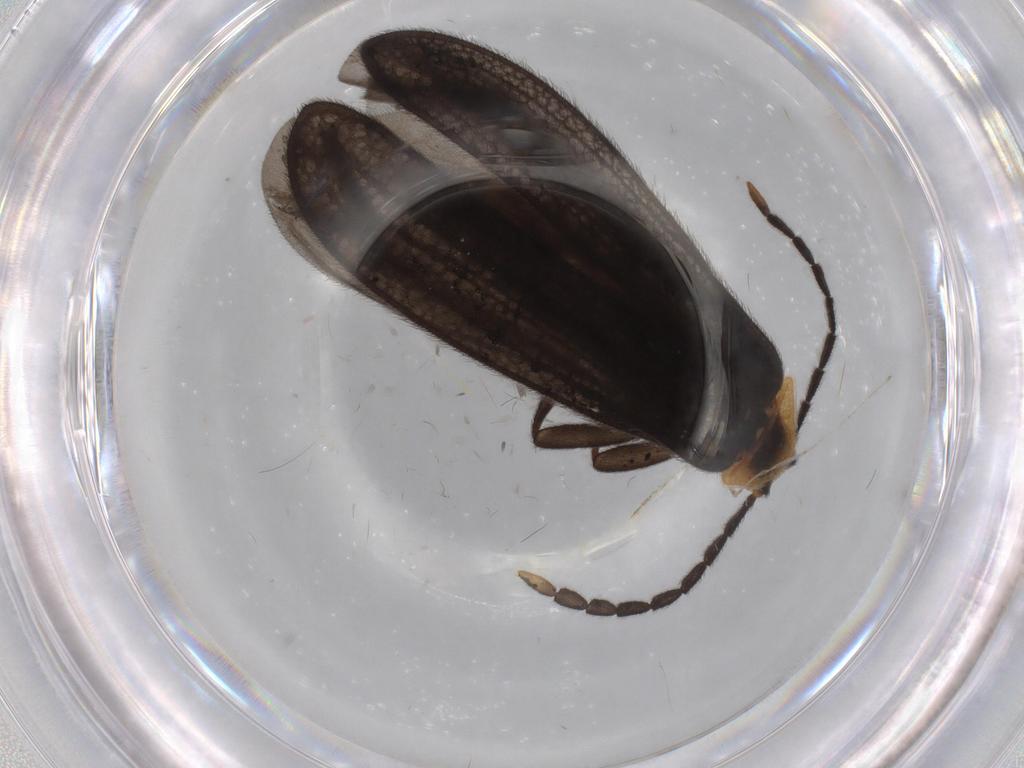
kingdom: Animalia
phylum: Arthropoda
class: Insecta
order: Coleoptera
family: Lycidae
